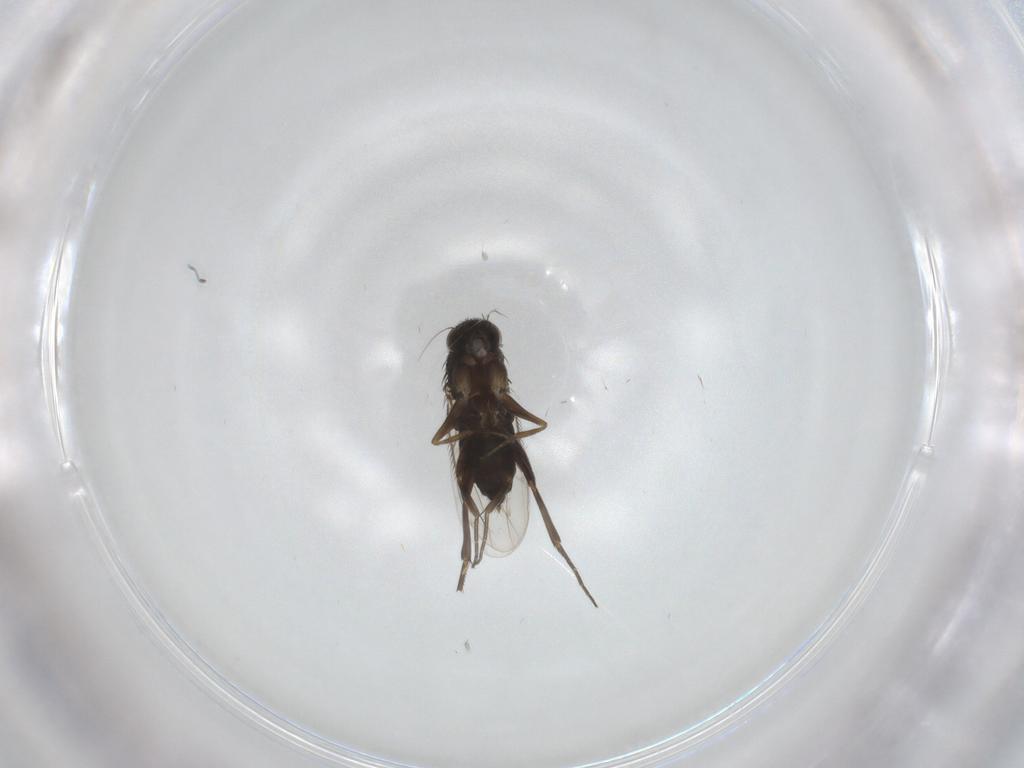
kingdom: Animalia
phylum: Arthropoda
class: Insecta
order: Diptera
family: Phoridae
